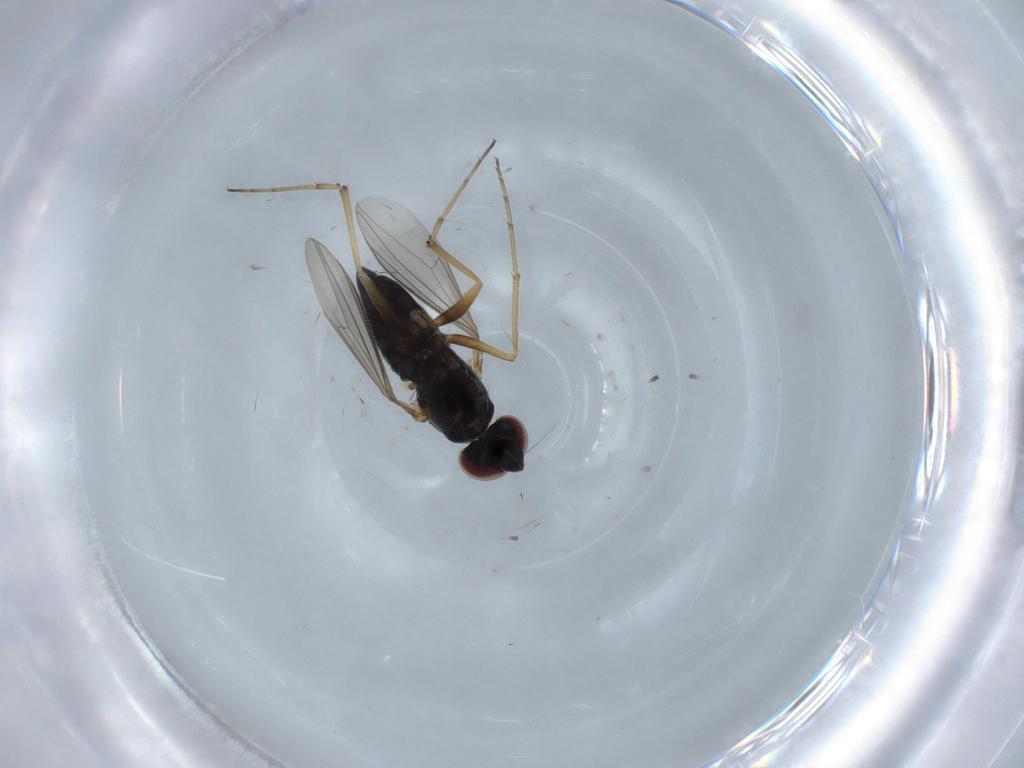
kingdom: Animalia
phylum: Arthropoda
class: Insecta
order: Diptera
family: Dolichopodidae
